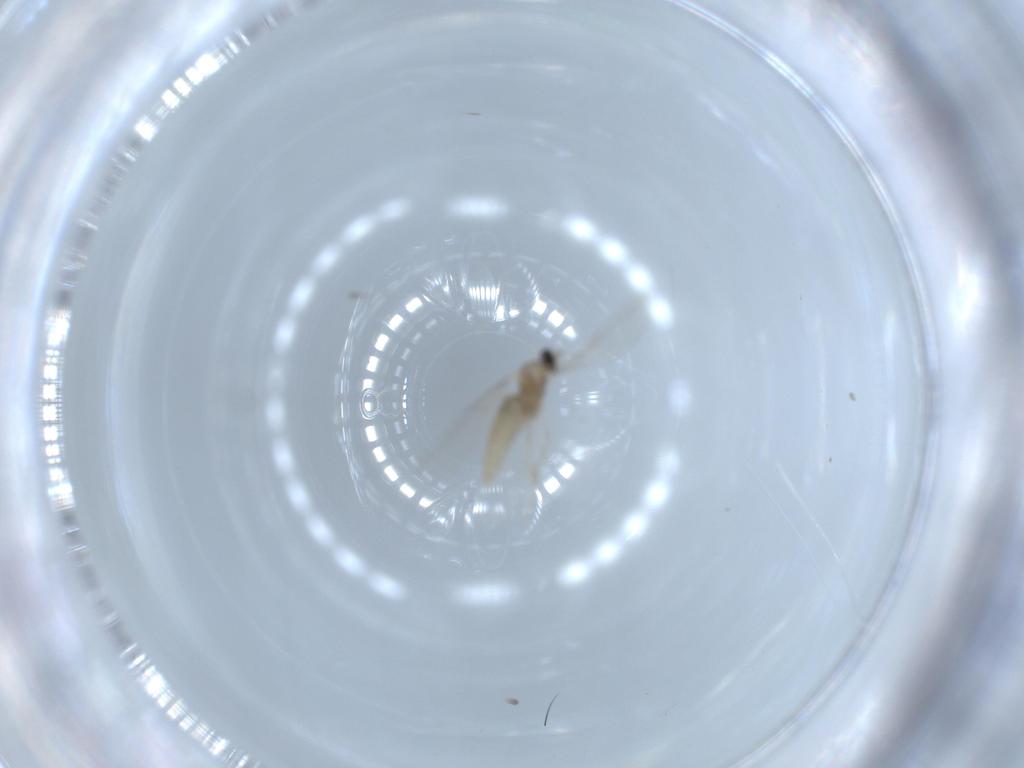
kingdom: Animalia
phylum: Arthropoda
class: Insecta
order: Diptera
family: Cecidomyiidae
